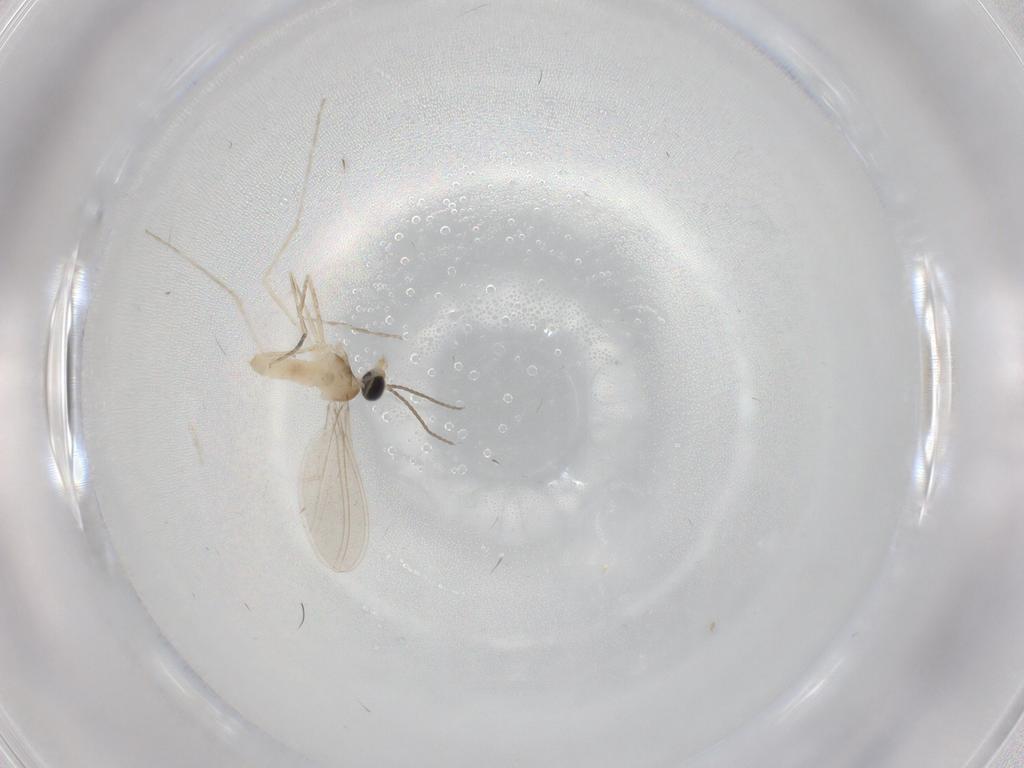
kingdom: Animalia
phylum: Arthropoda
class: Insecta
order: Diptera
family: Cecidomyiidae
